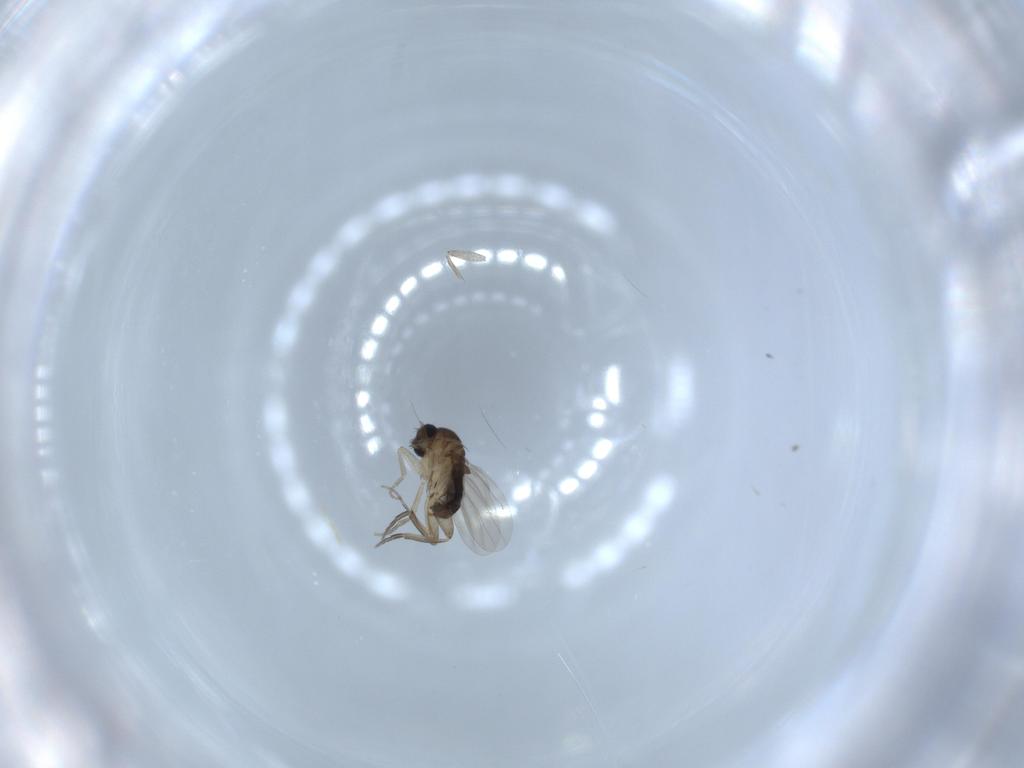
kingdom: Animalia
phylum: Arthropoda
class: Insecta
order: Diptera
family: Phoridae
